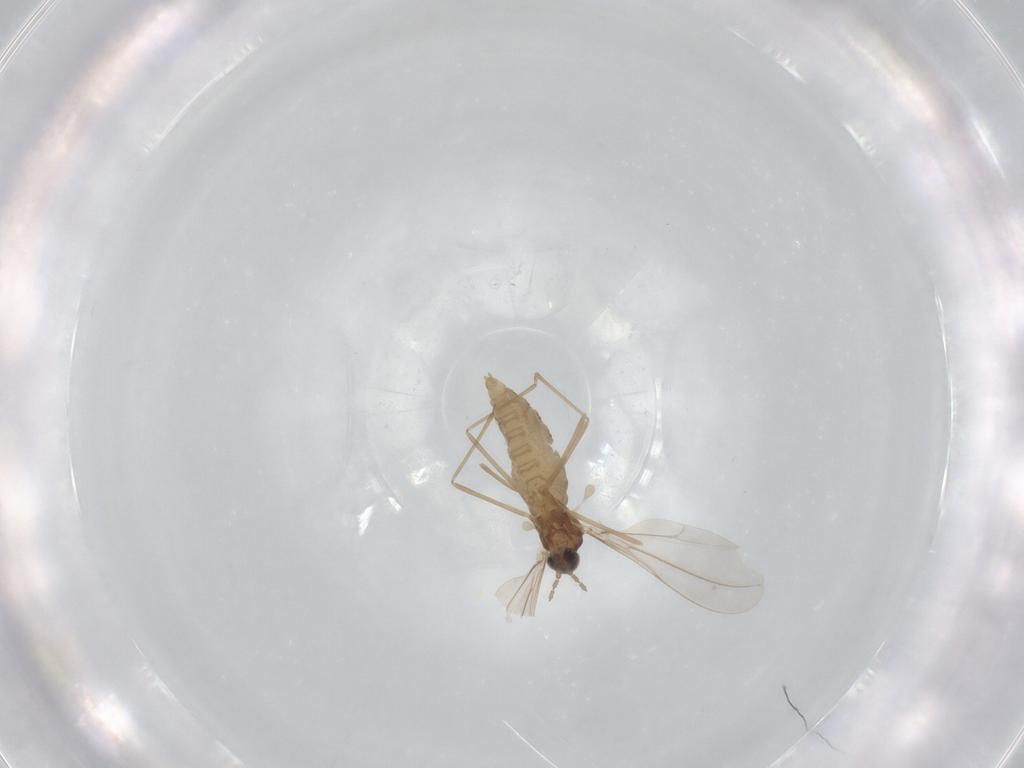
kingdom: Animalia
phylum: Arthropoda
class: Insecta
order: Diptera
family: Cecidomyiidae
